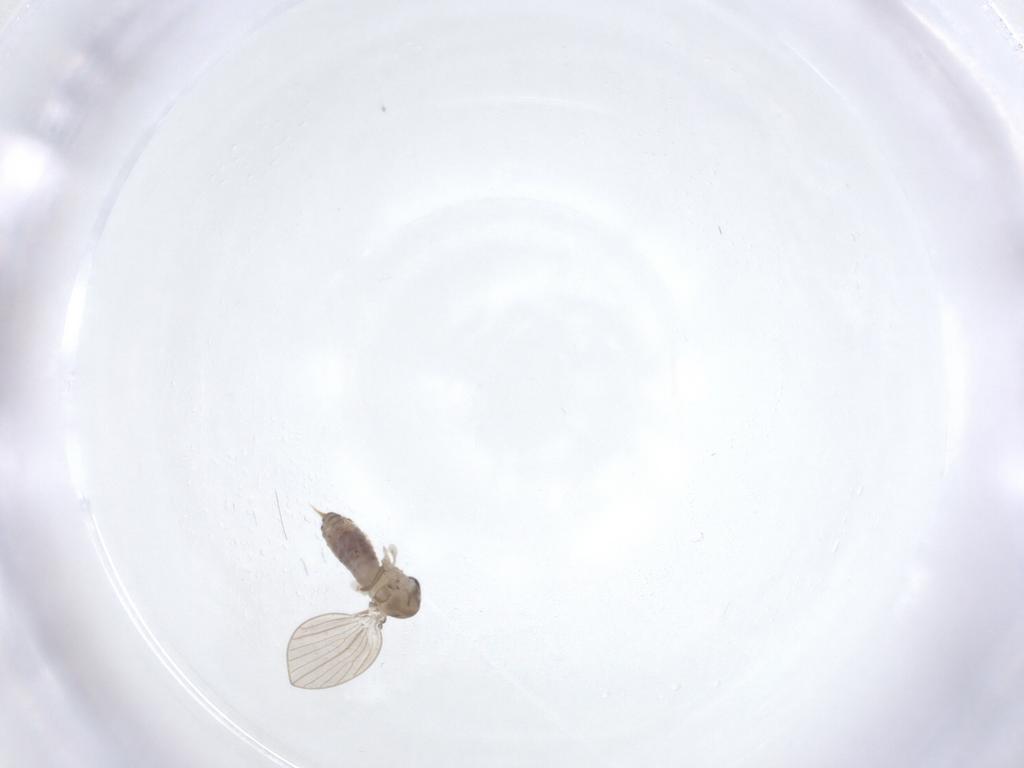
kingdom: Animalia
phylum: Arthropoda
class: Insecta
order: Diptera
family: Psychodidae
